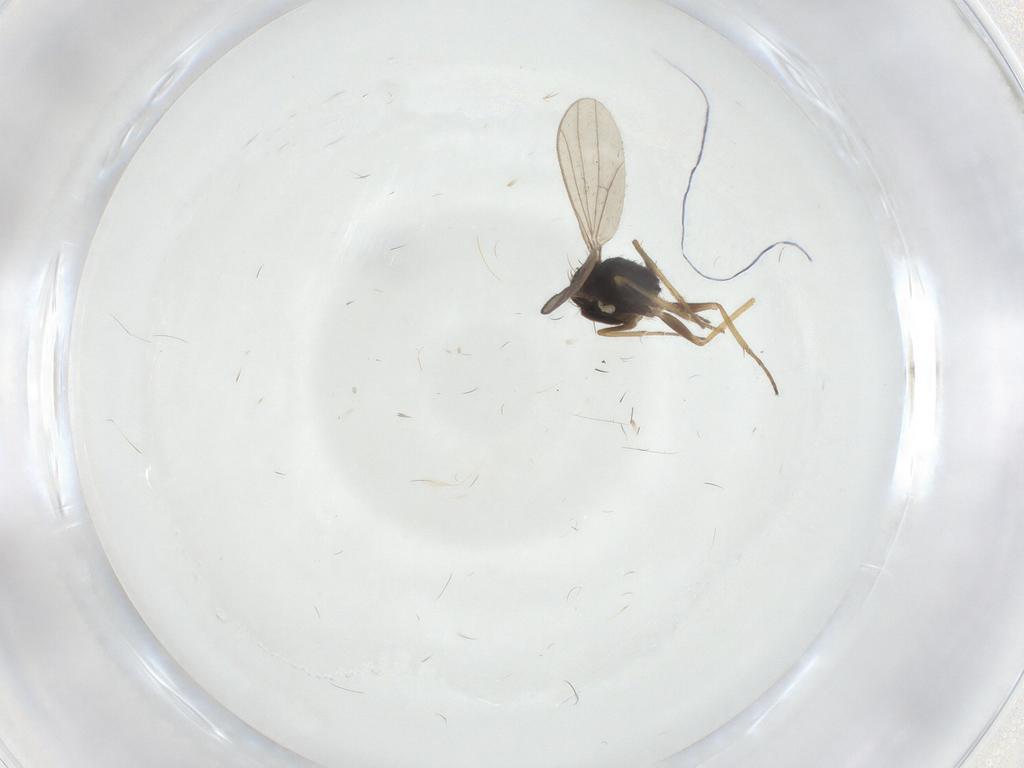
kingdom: Animalia
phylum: Arthropoda
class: Insecta
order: Diptera
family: Dolichopodidae
